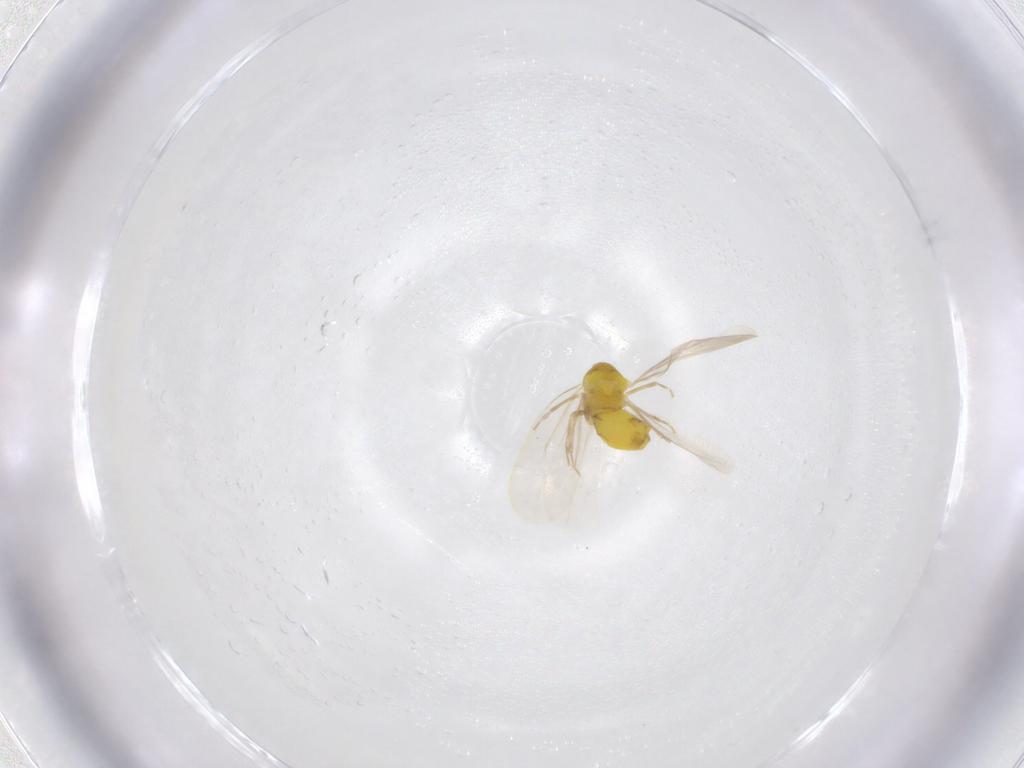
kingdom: Animalia
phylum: Arthropoda
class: Insecta
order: Hemiptera
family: Aleyrodidae
